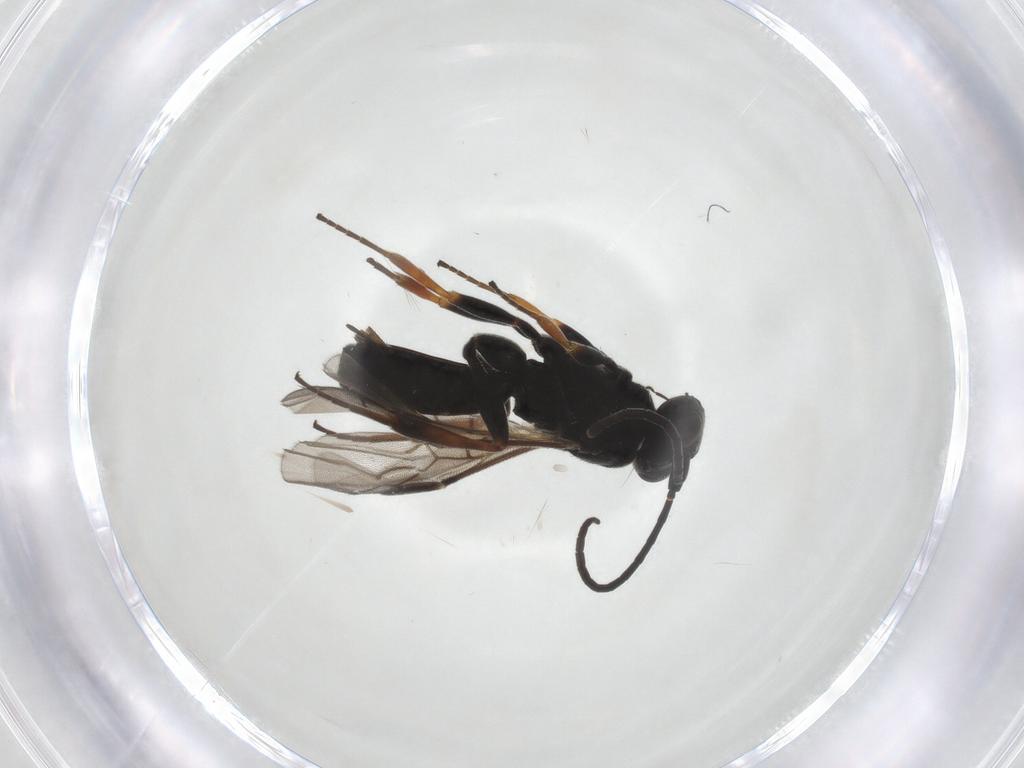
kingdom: Animalia
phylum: Arthropoda
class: Insecta
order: Hymenoptera
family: Braconidae
